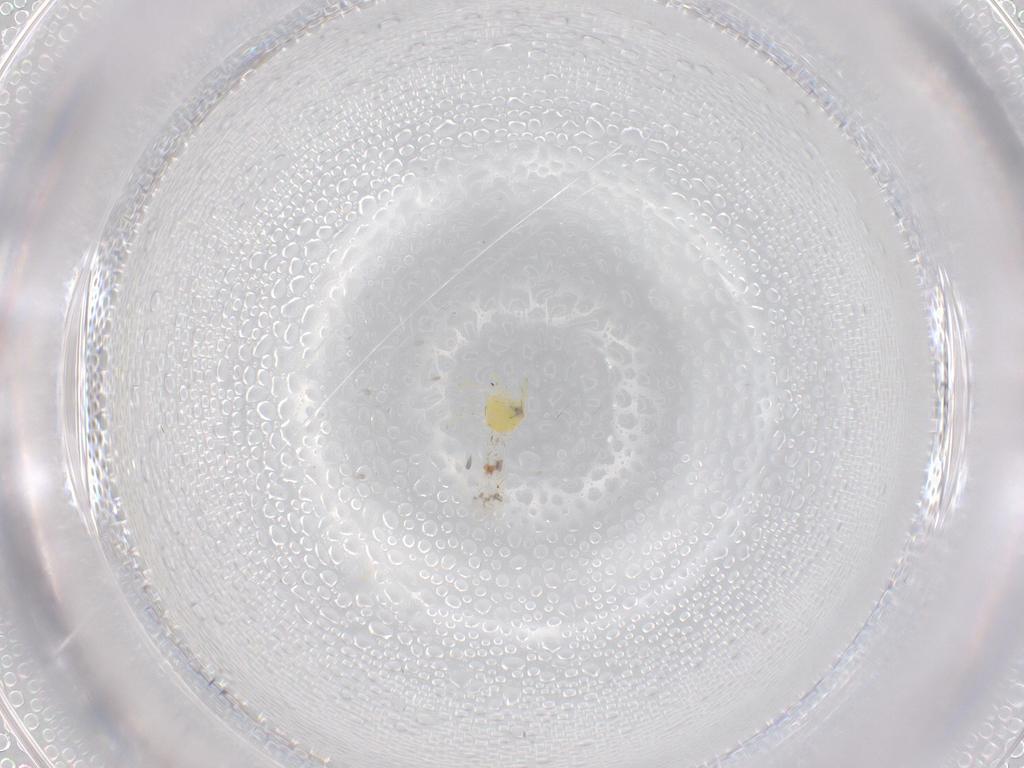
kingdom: Animalia
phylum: Arthropoda
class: Insecta
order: Hemiptera
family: Aleyrodidae
